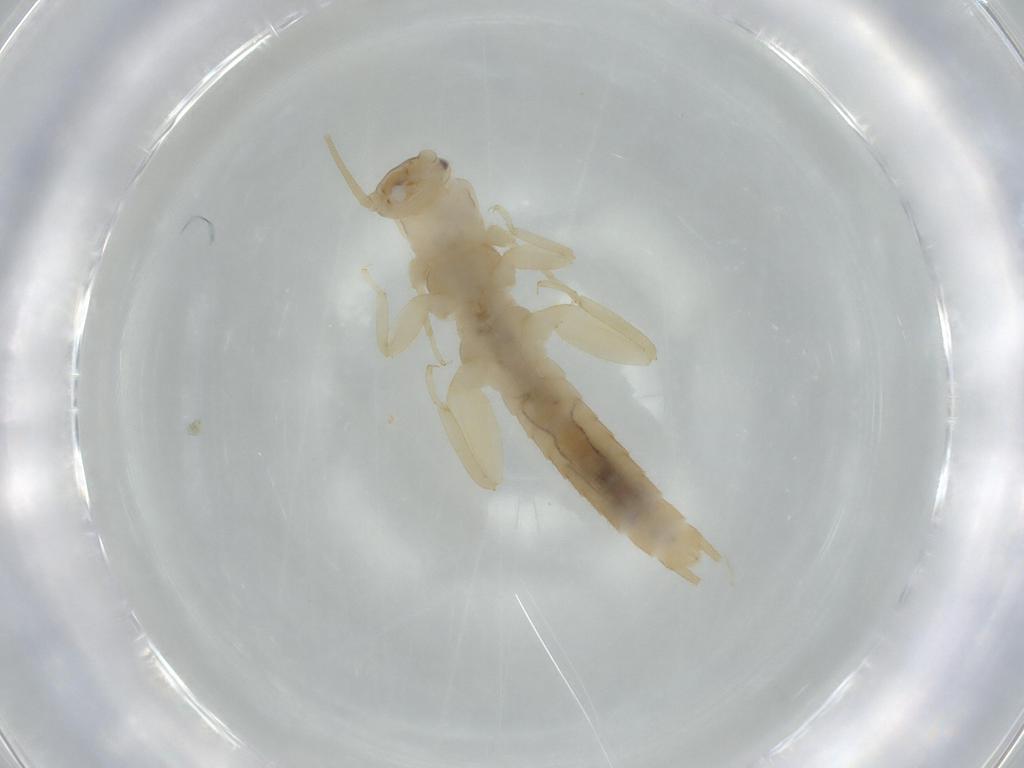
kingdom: Animalia
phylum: Arthropoda
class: Insecta
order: Plecoptera
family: Leuctridae
